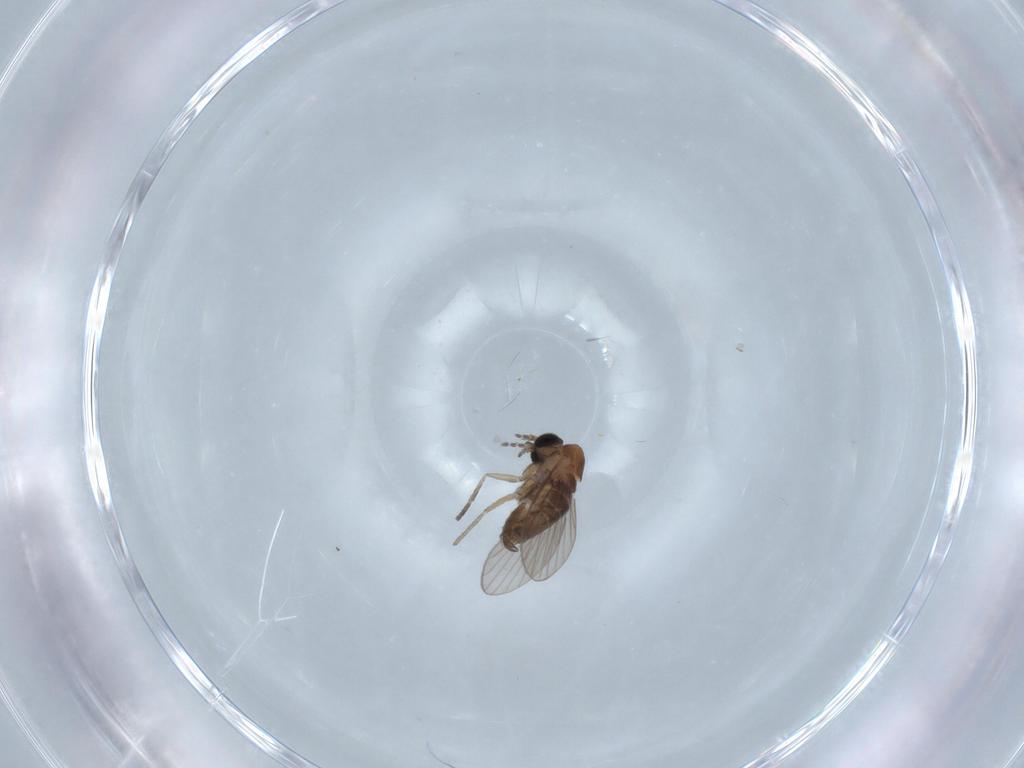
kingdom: Animalia
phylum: Arthropoda
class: Insecta
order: Diptera
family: Psychodidae
